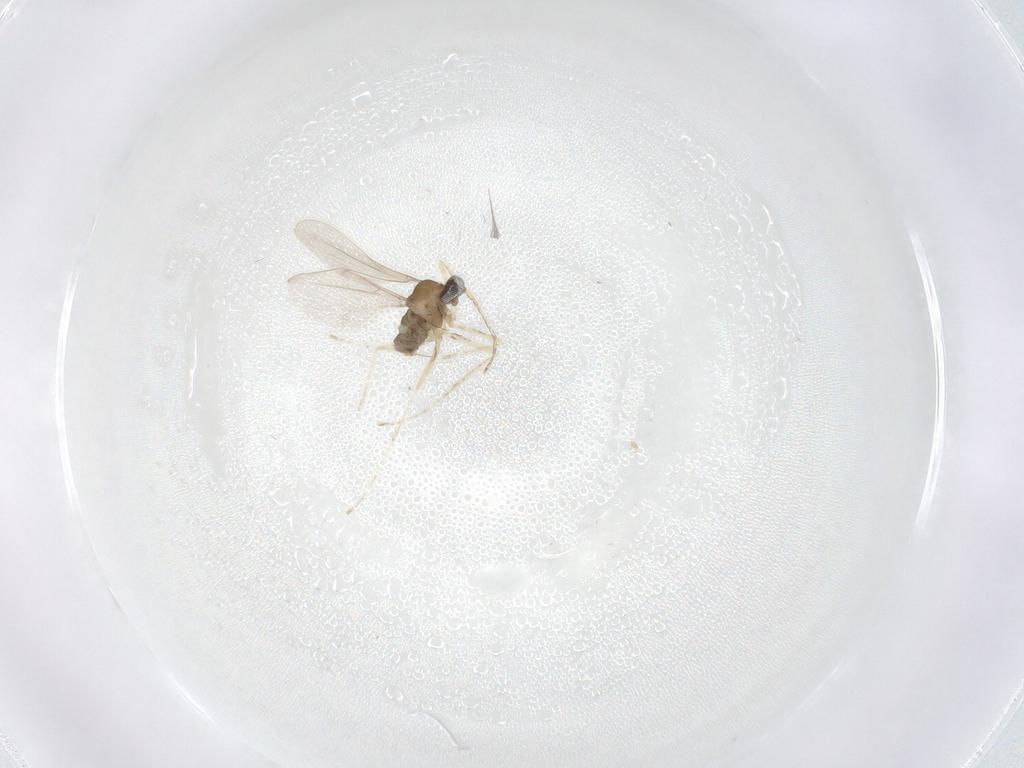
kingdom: Animalia
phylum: Arthropoda
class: Insecta
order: Diptera
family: Cecidomyiidae
